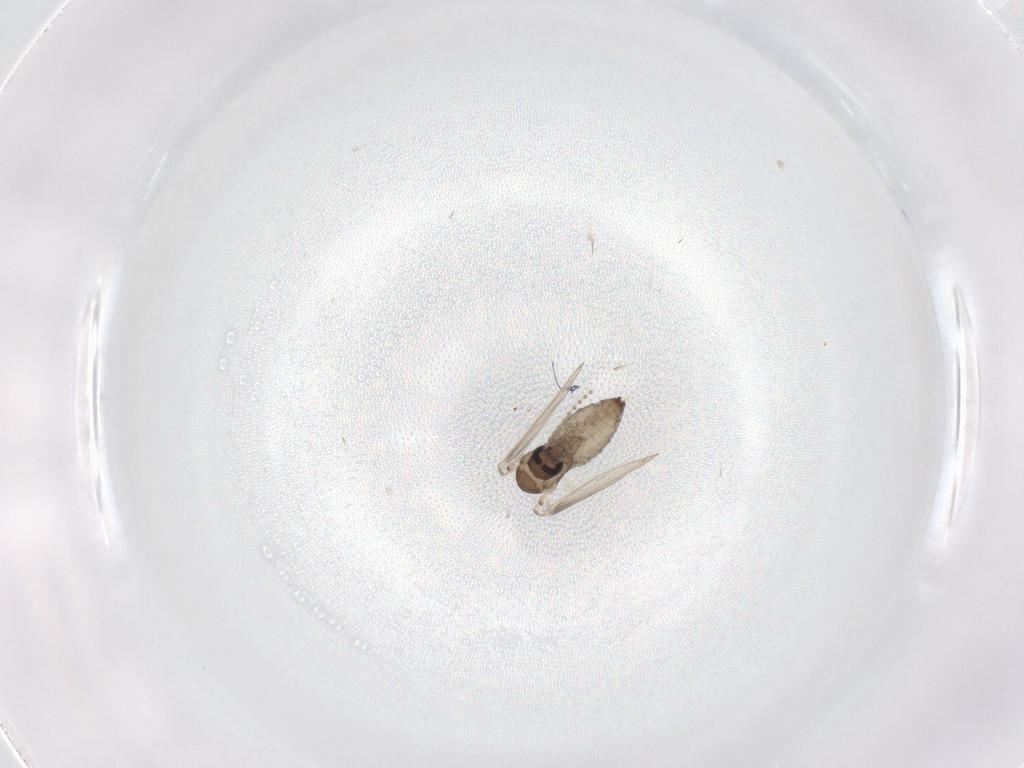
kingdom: Animalia
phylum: Arthropoda
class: Insecta
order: Diptera
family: Psychodidae
